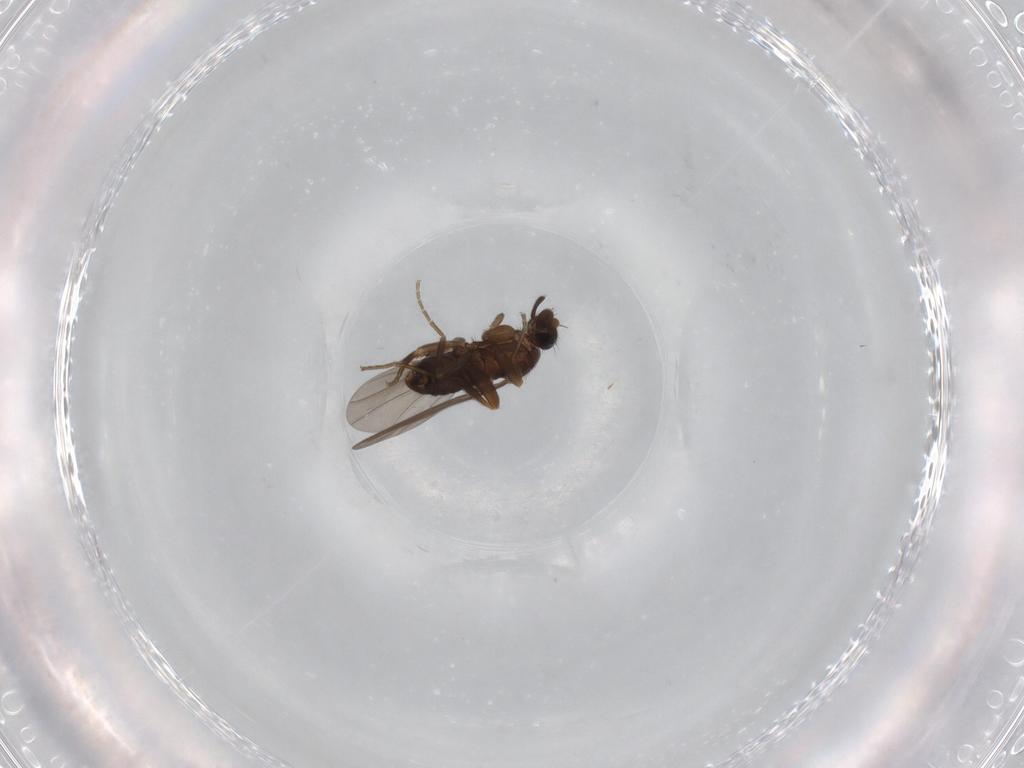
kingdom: Animalia
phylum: Arthropoda
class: Insecta
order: Diptera
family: Phoridae
